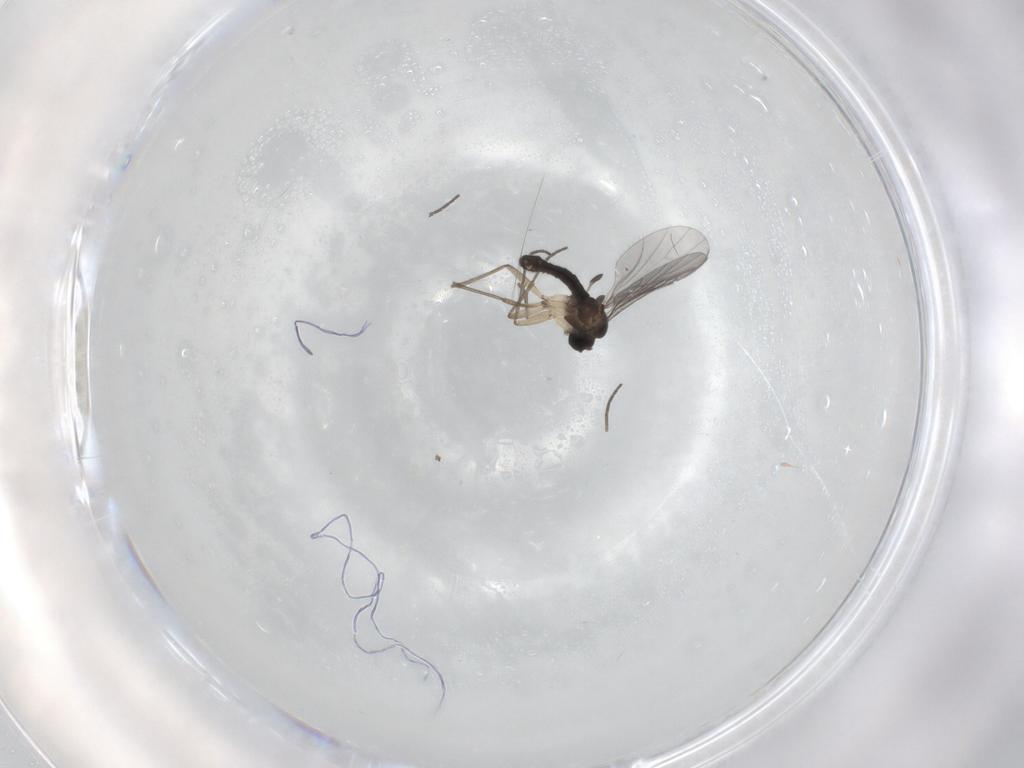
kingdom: Animalia
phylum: Arthropoda
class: Insecta
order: Diptera
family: Sciaridae
